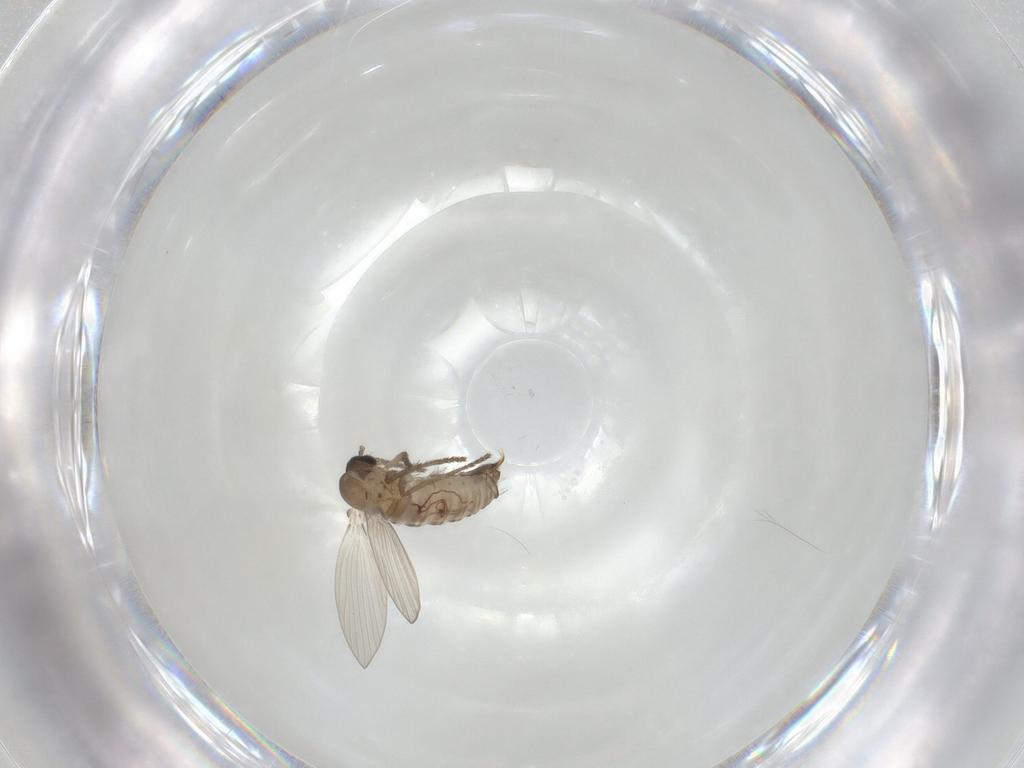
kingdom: Animalia
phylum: Arthropoda
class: Insecta
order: Diptera
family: Psychodidae
